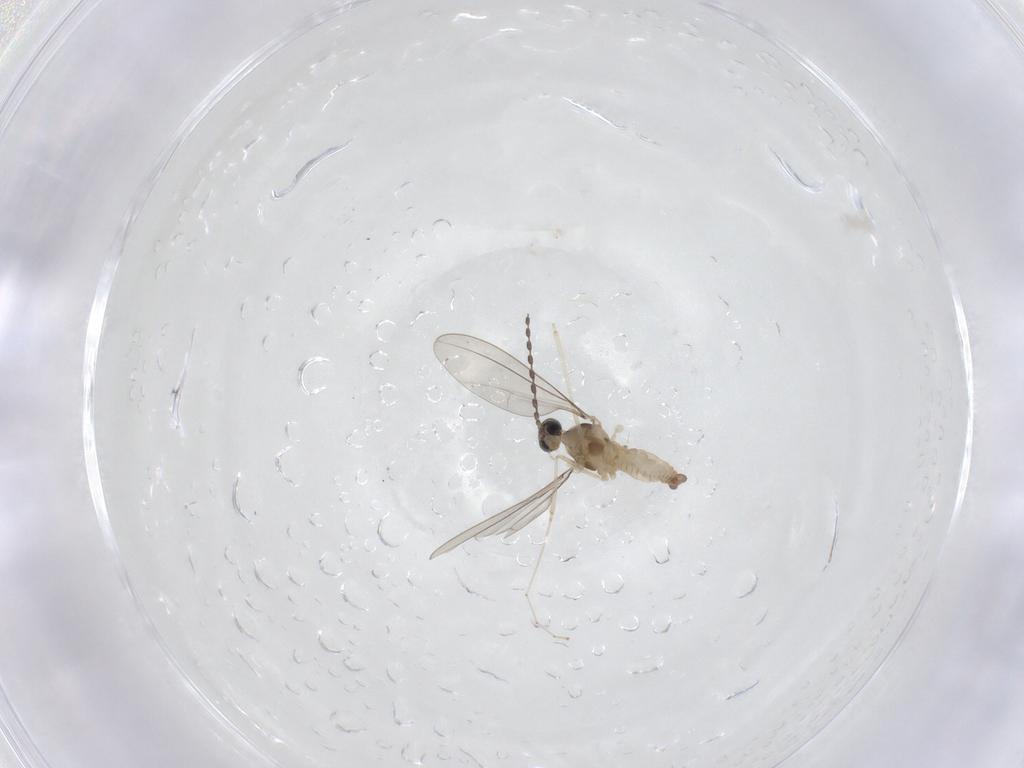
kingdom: Animalia
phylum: Arthropoda
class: Insecta
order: Diptera
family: Cecidomyiidae
